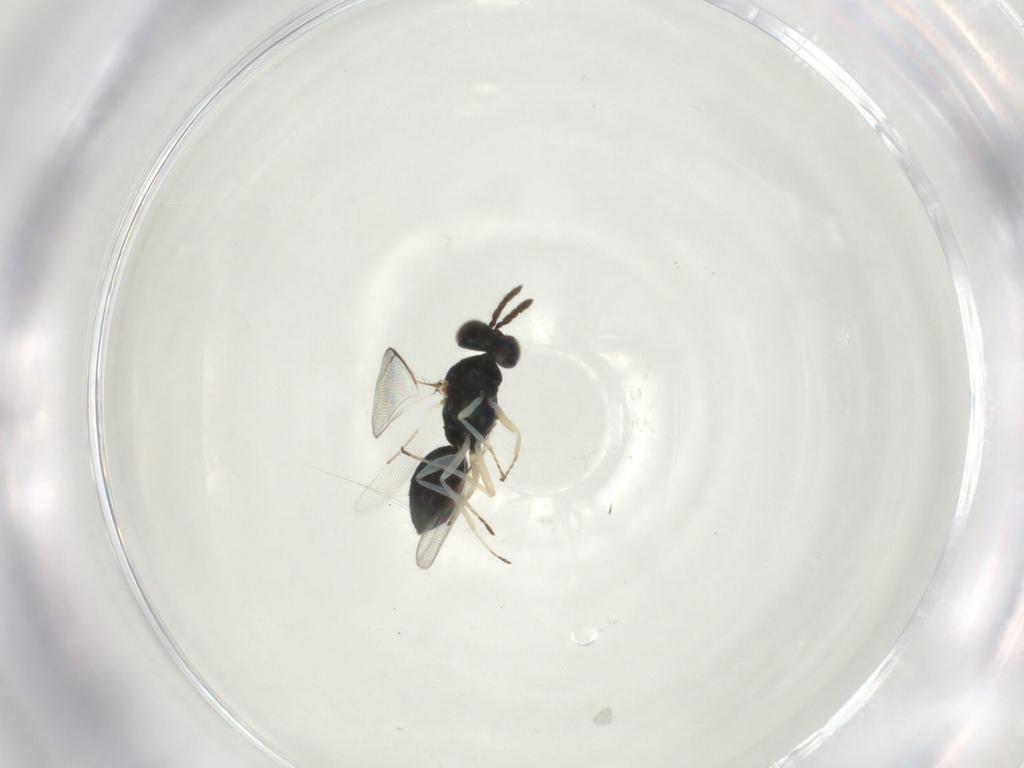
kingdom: Animalia
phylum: Arthropoda
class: Insecta
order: Hymenoptera
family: Eulophidae
